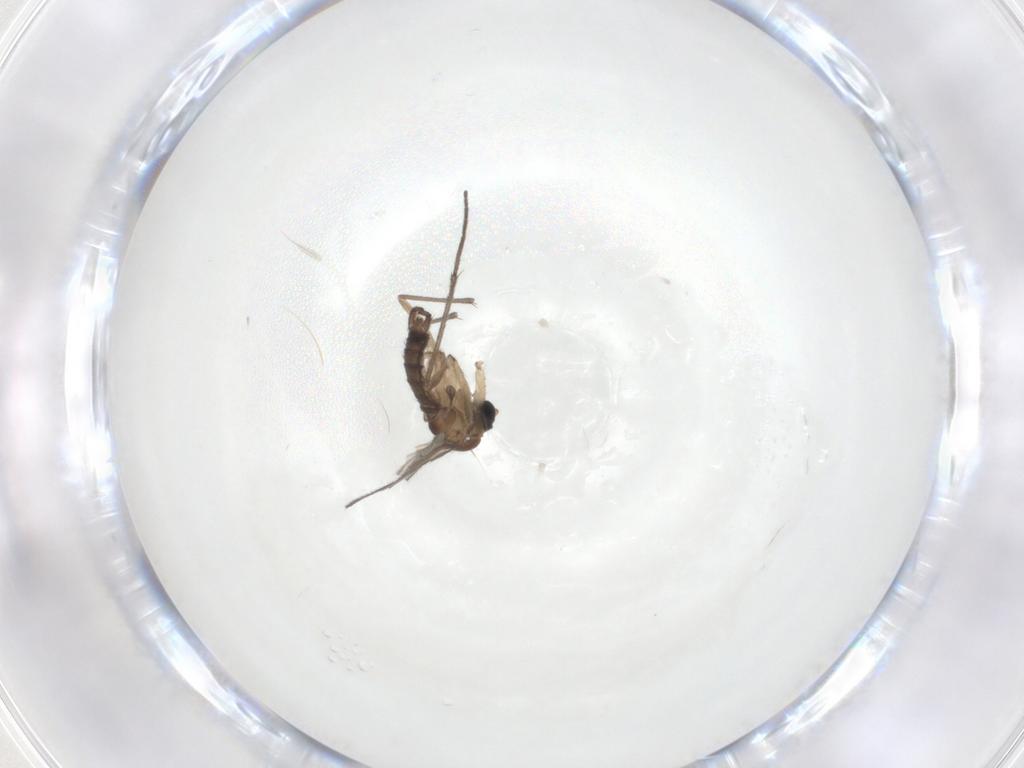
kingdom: Animalia
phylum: Arthropoda
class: Insecta
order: Diptera
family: Sciaridae
